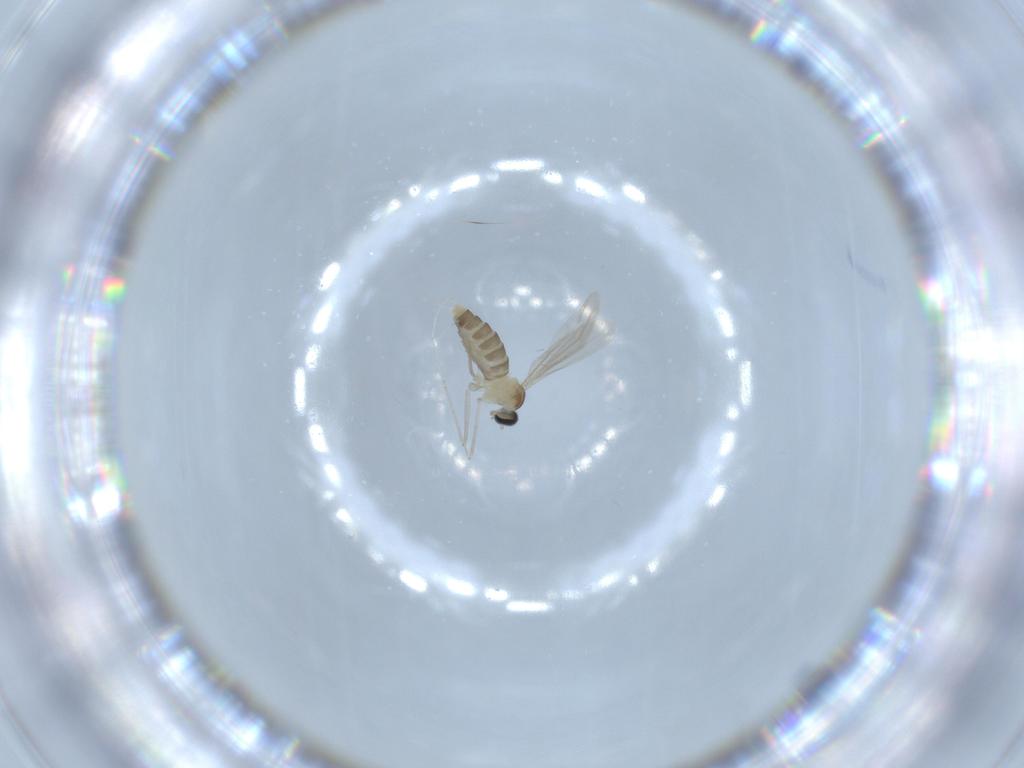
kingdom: Animalia
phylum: Arthropoda
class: Insecta
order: Diptera
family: Cecidomyiidae
